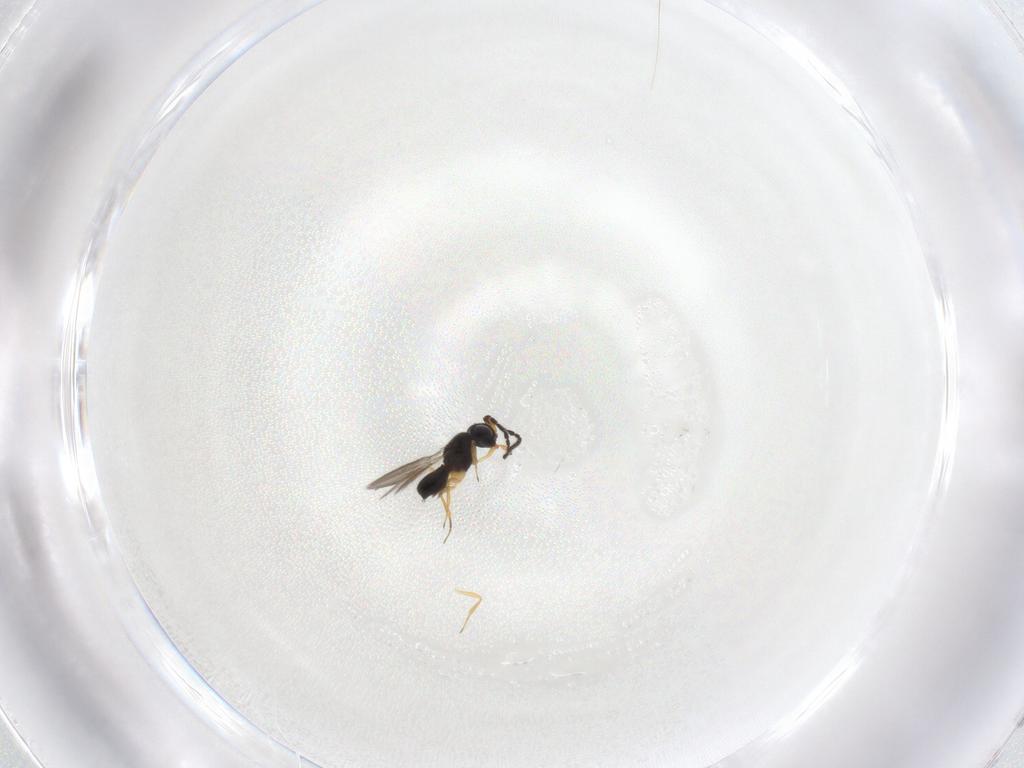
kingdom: Animalia
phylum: Arthropoda
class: Insecta
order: Hymenoptera
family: Scelionidae
